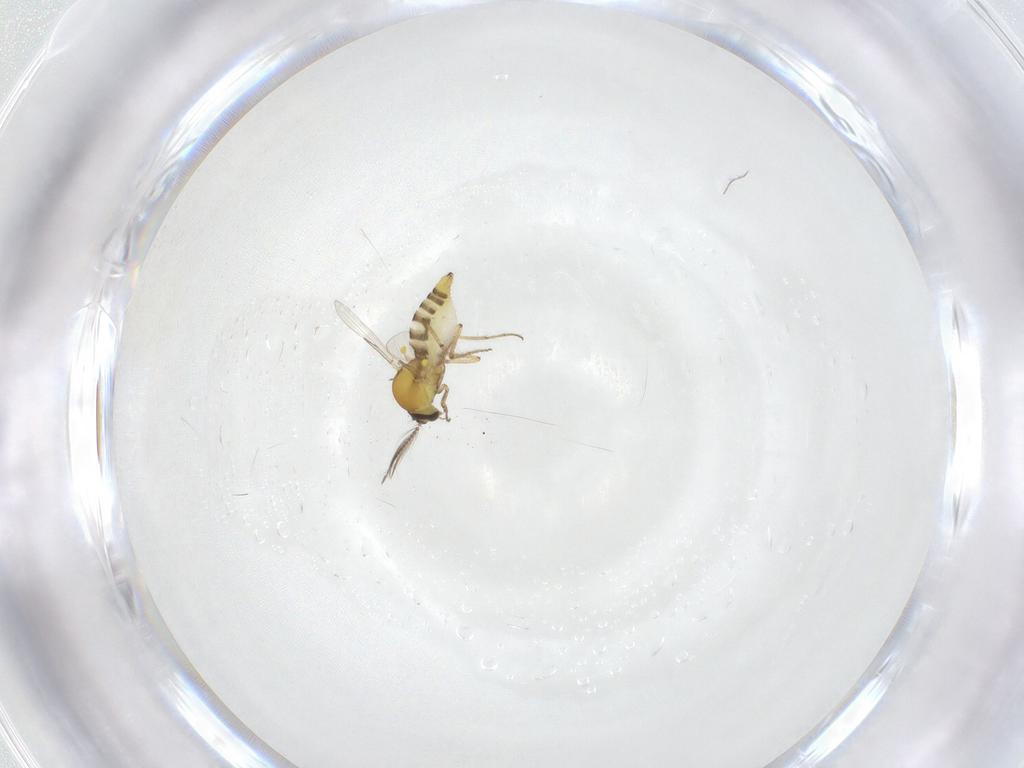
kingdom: Animalia
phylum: Arthropoda
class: Insecta
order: Diptera
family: Ceratopogonidae
